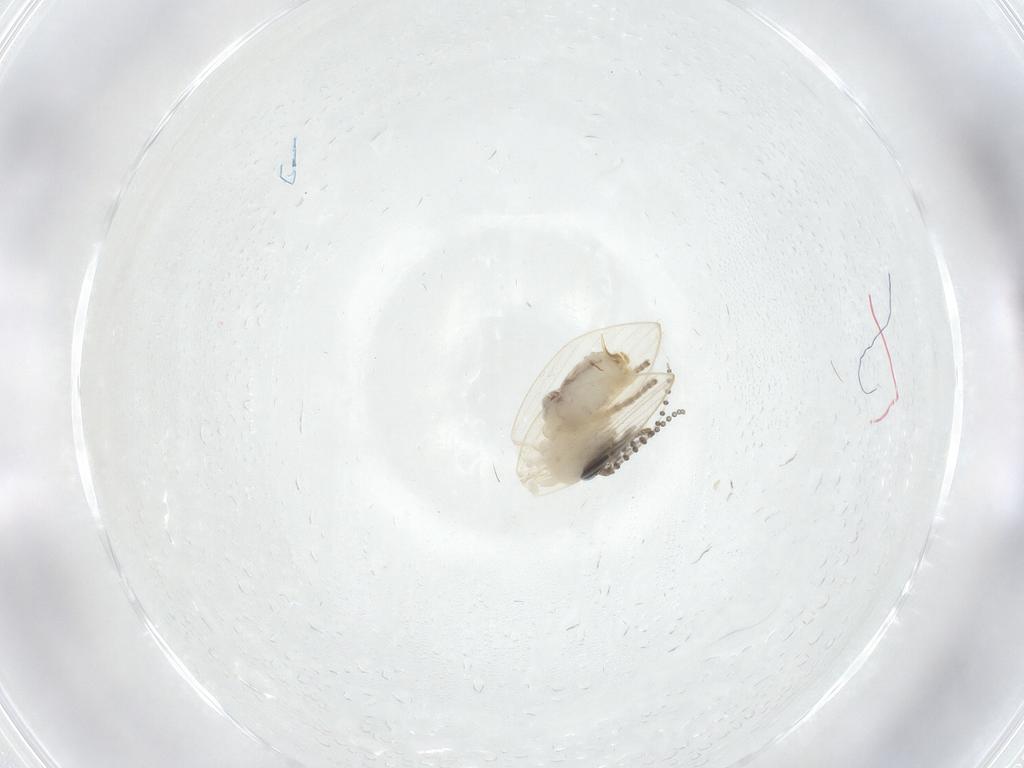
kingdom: Animalia
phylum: Arthropoda
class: Insecta
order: Diptera
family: Psychodidae
